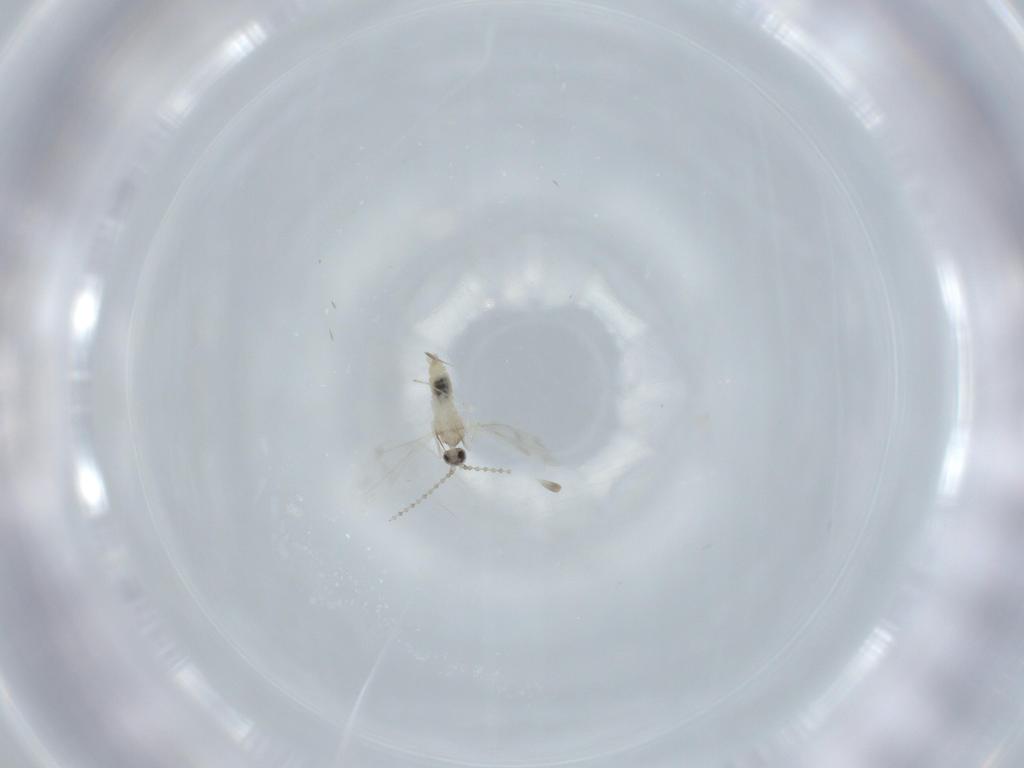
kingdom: Animalia
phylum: Arthropoda
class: Insecta
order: Diptera
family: Cecidomyiidae
